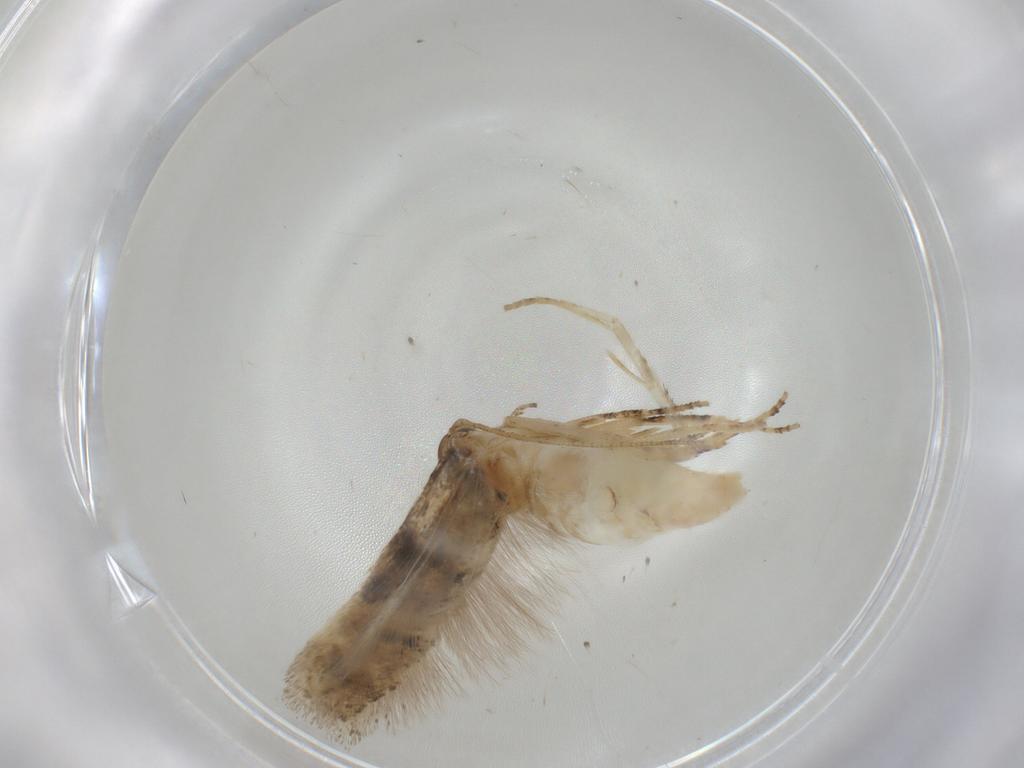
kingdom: Animalia
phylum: Arthropoda
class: Insecta
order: Lepidoptera
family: Gelechiidae
